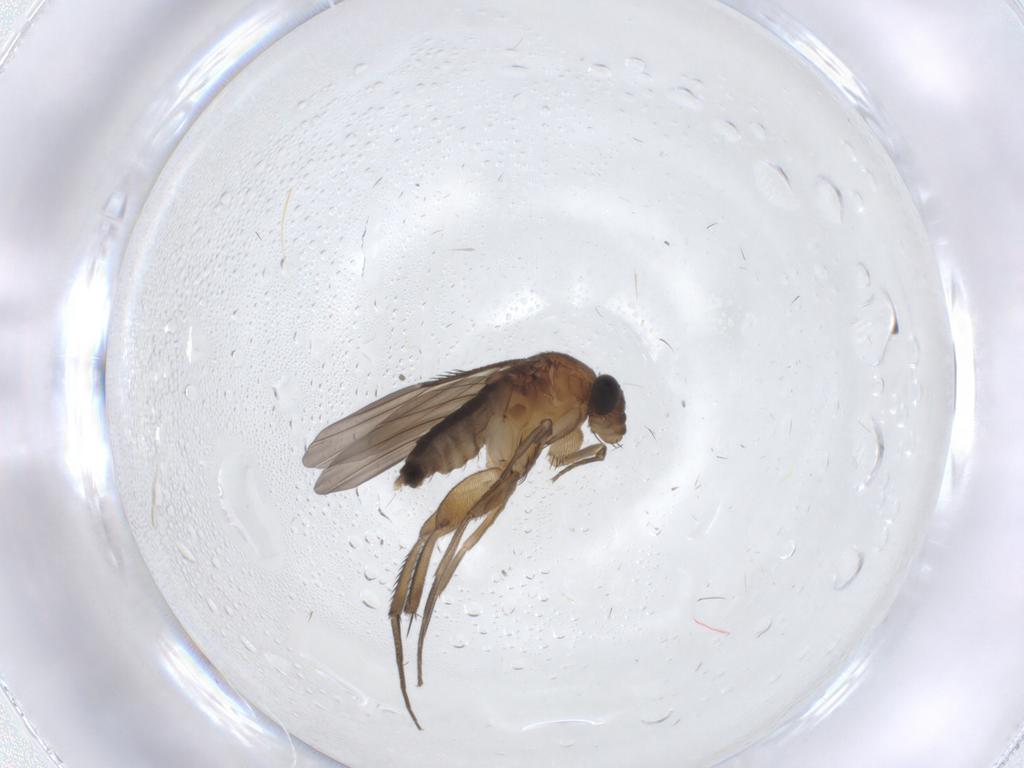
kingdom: Animalia
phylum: Arthropoda
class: Insecta
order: Diptera
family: Phoridae
